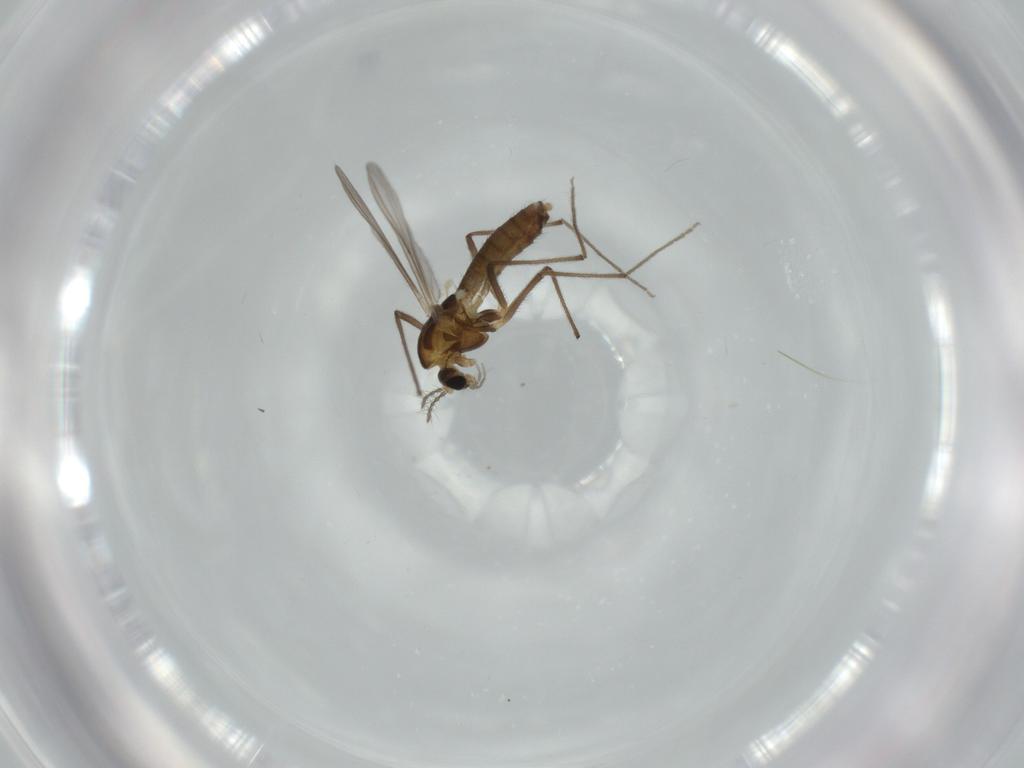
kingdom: Animalia
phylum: Arthropoda
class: Insecta
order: Diptera
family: Chironomidae
